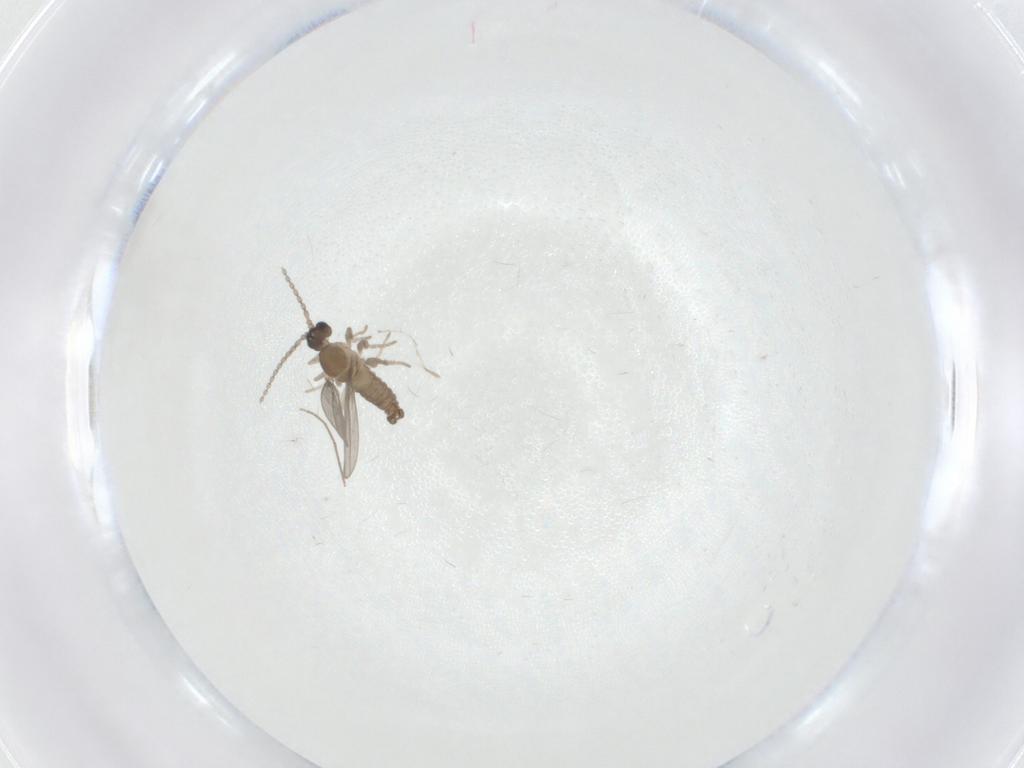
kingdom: Animalia
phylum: Arthropoda
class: Insecta
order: Diptera
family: Cecidomyiidae
